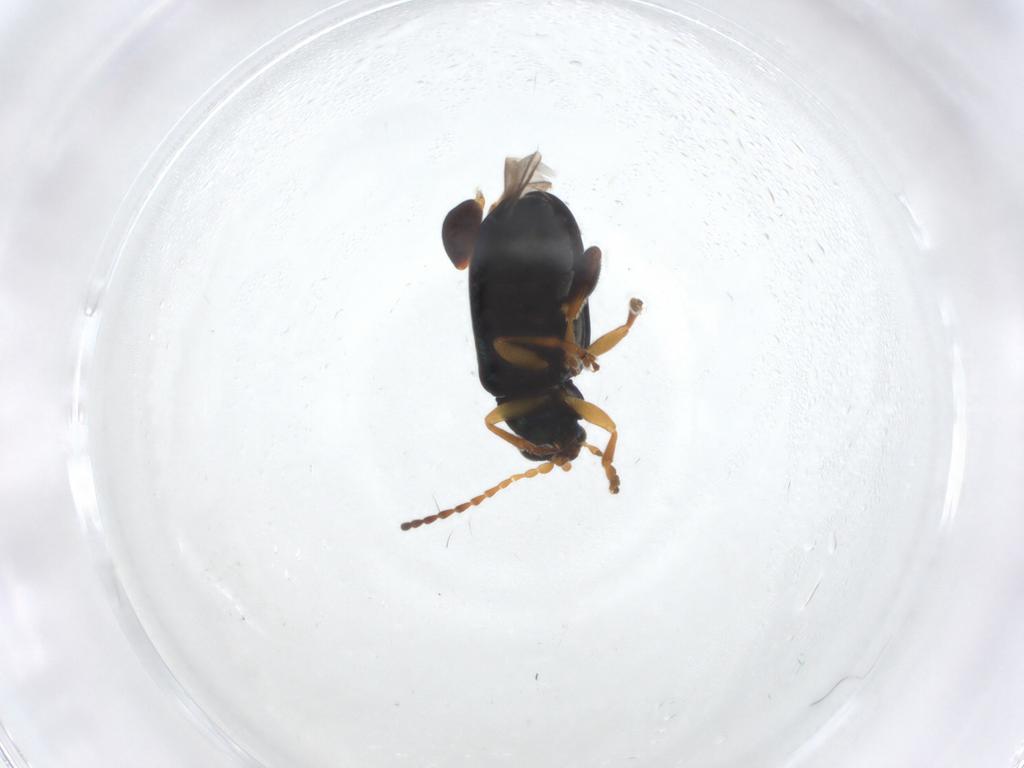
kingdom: Animalia
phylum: Arthropoda
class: Insecta
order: Coleoptera
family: Chrysomelidae
